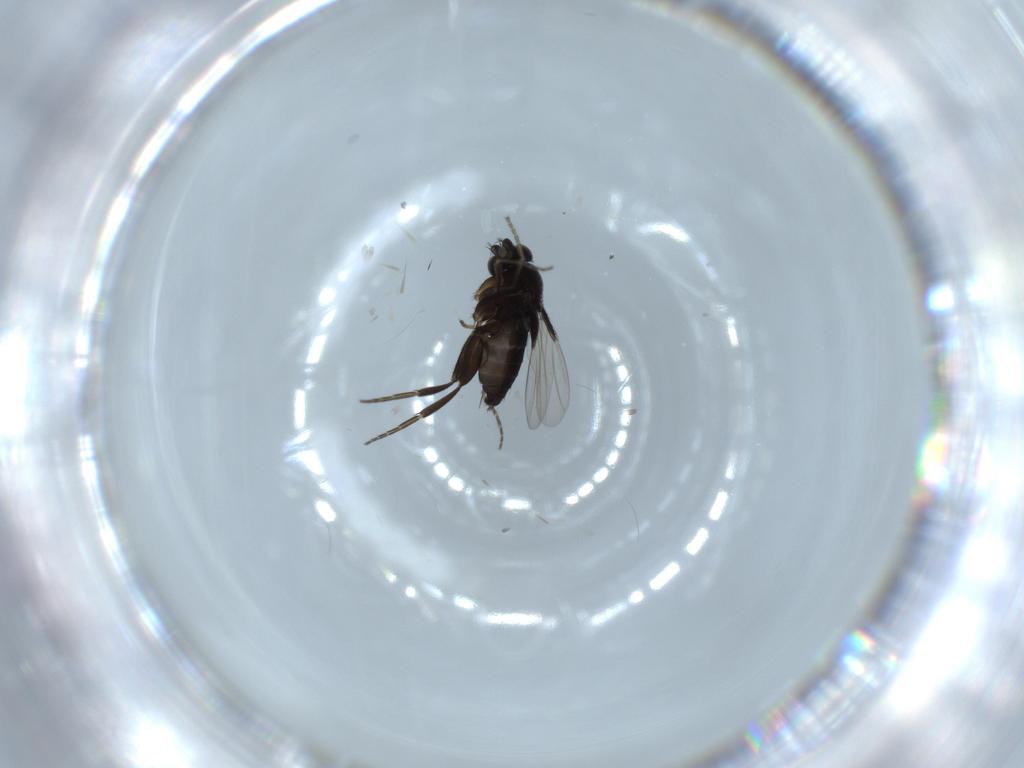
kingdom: Animalia
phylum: Arthropoda
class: Insecta
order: Diptera
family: Phoridae
